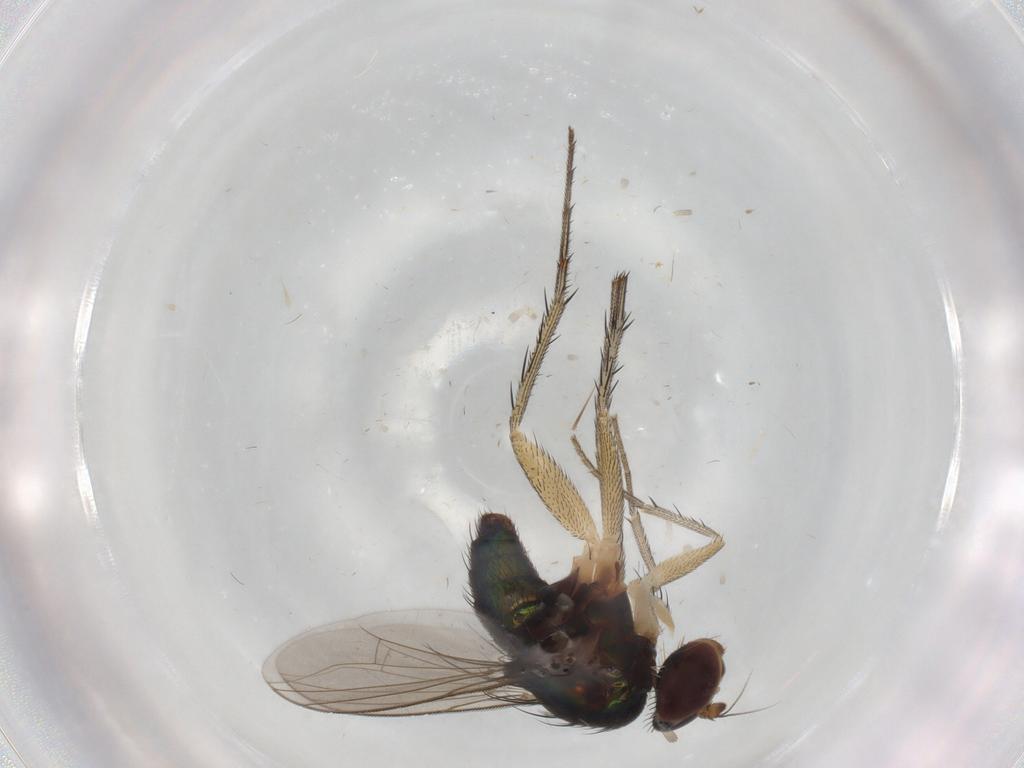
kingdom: Animalia
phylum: Arthropoda
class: Insecta
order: Diptera
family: Dolichopodidae
